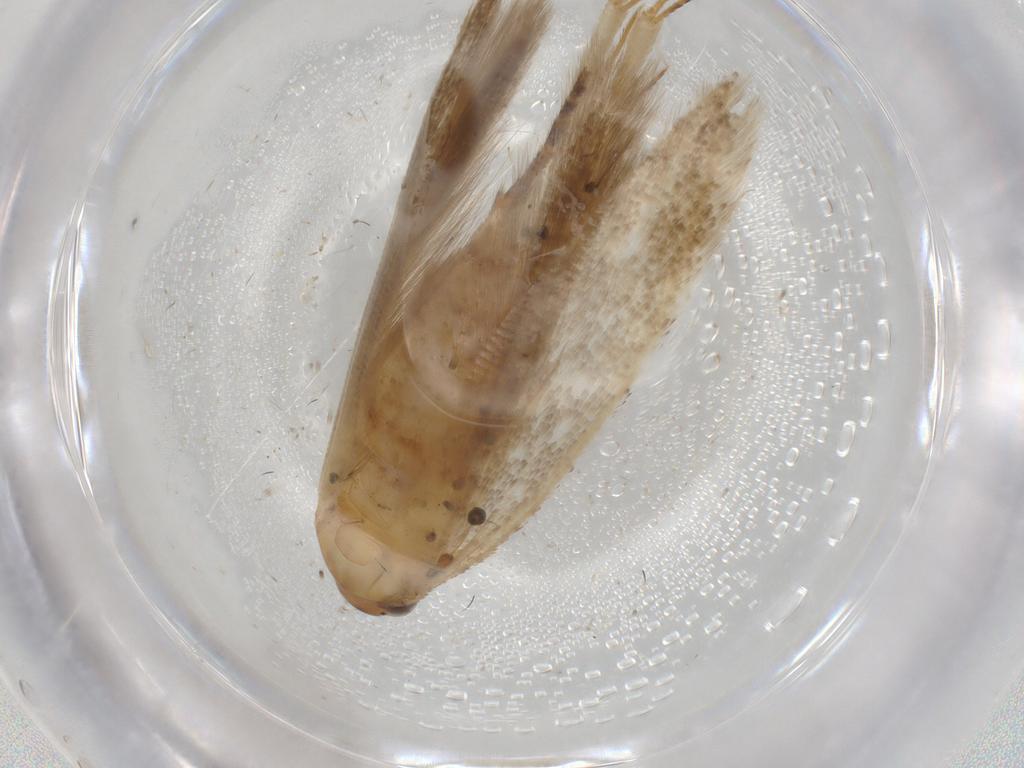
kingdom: Animalia
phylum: Arthropoda
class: Insecta
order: Lepidoptera
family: Gelechiidae
